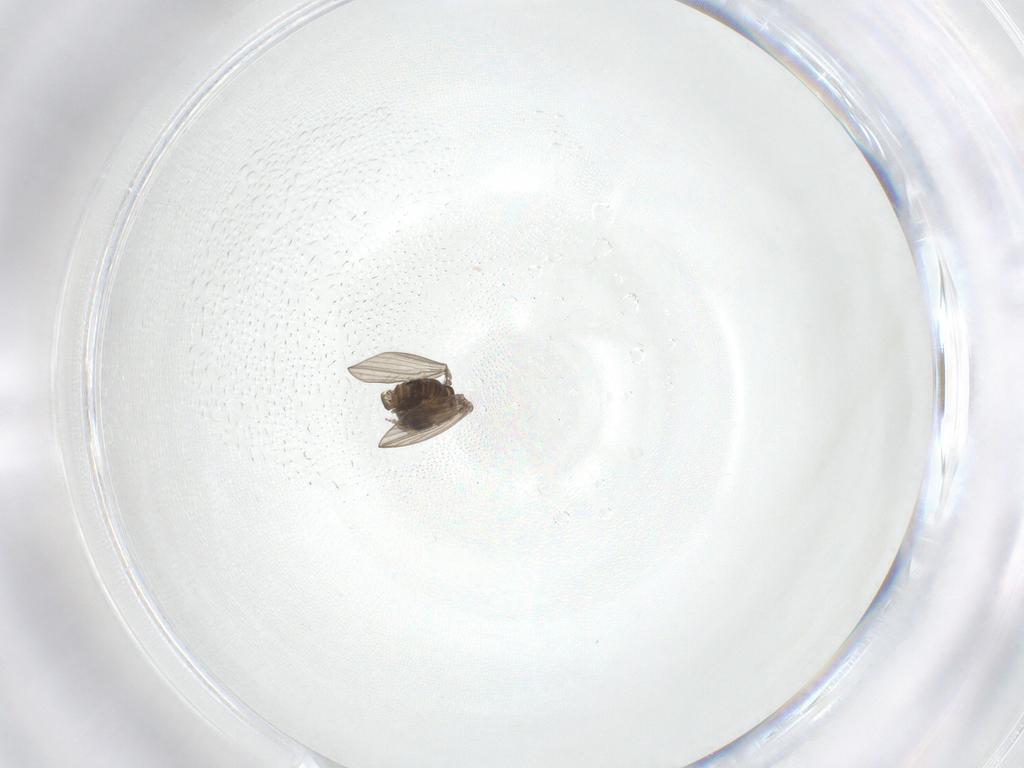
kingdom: Animalia
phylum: Arthropoda
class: Insecta
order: Diptera
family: Psychodidae
